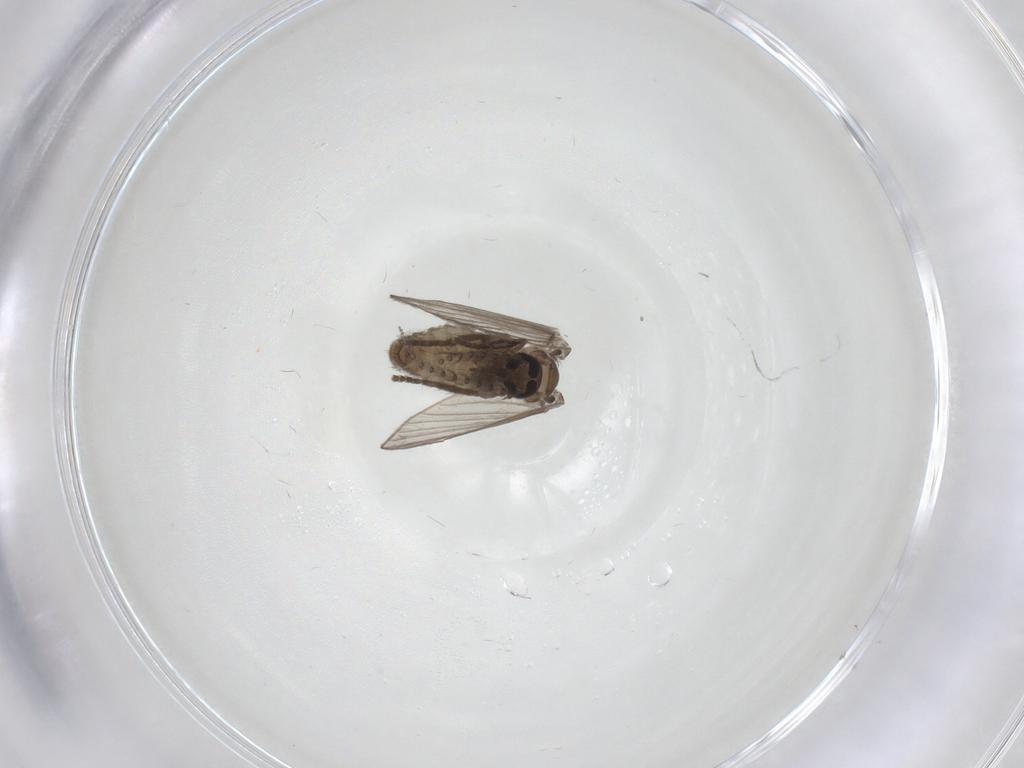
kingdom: Animalia
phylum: Arthropoda
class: Insecta
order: Diptera
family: Psychodidae
